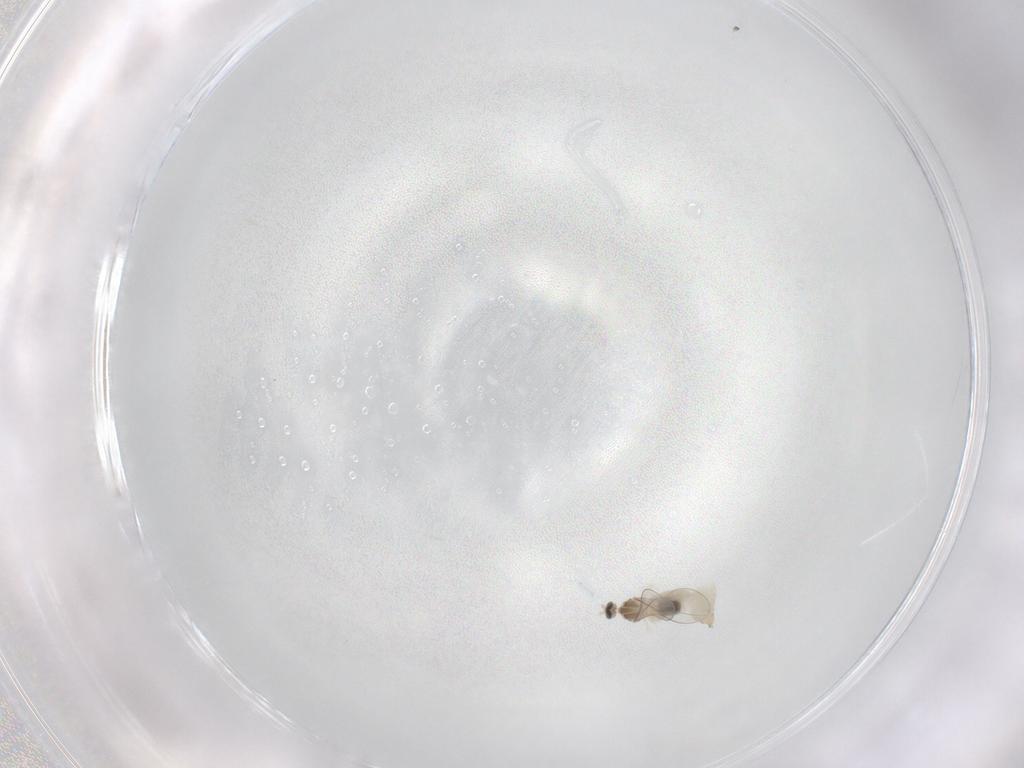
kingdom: Animalia
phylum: Arthropoda
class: Insecta
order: Diptera
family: Cecidomyiidae
